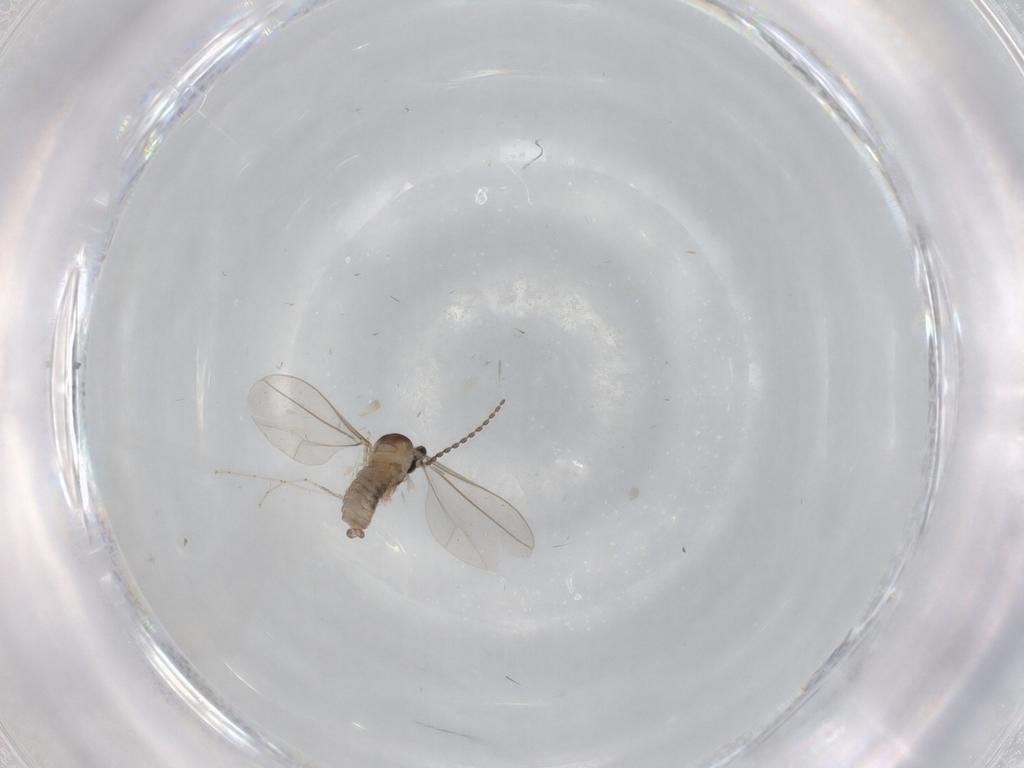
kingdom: Animalia
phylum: Arthropoda
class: Insecta
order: Diptera
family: Cecidomyiidae
